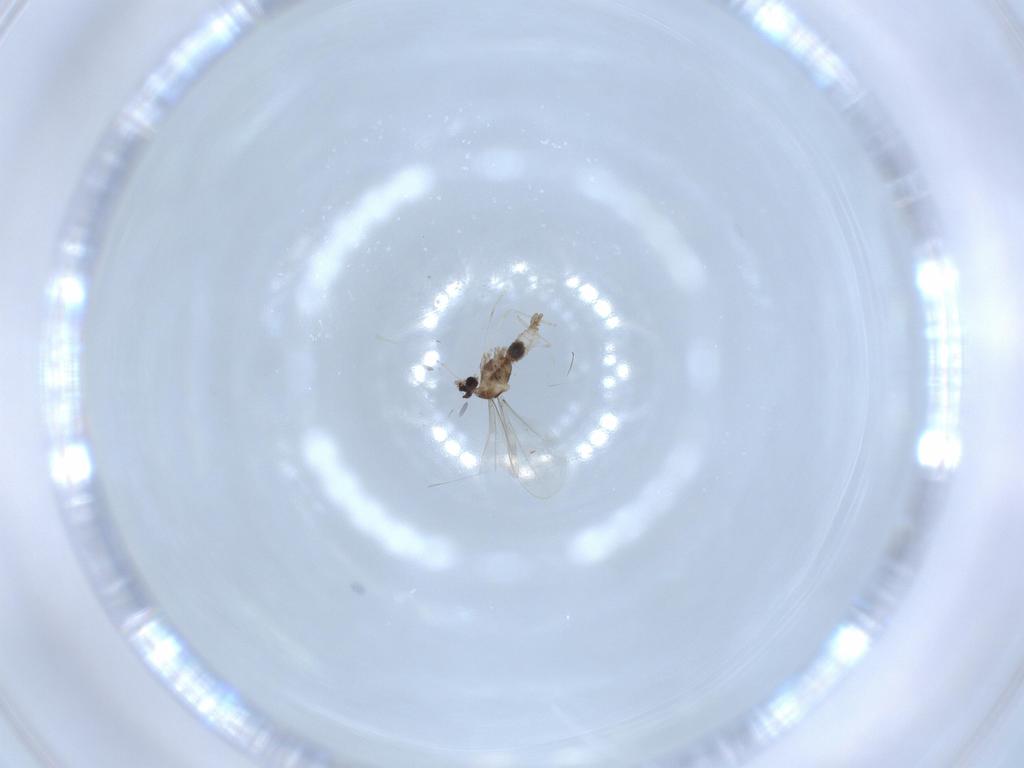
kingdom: Animalia
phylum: Arthropoda
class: Insecta
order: Diptera
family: Cecidomyiidae
